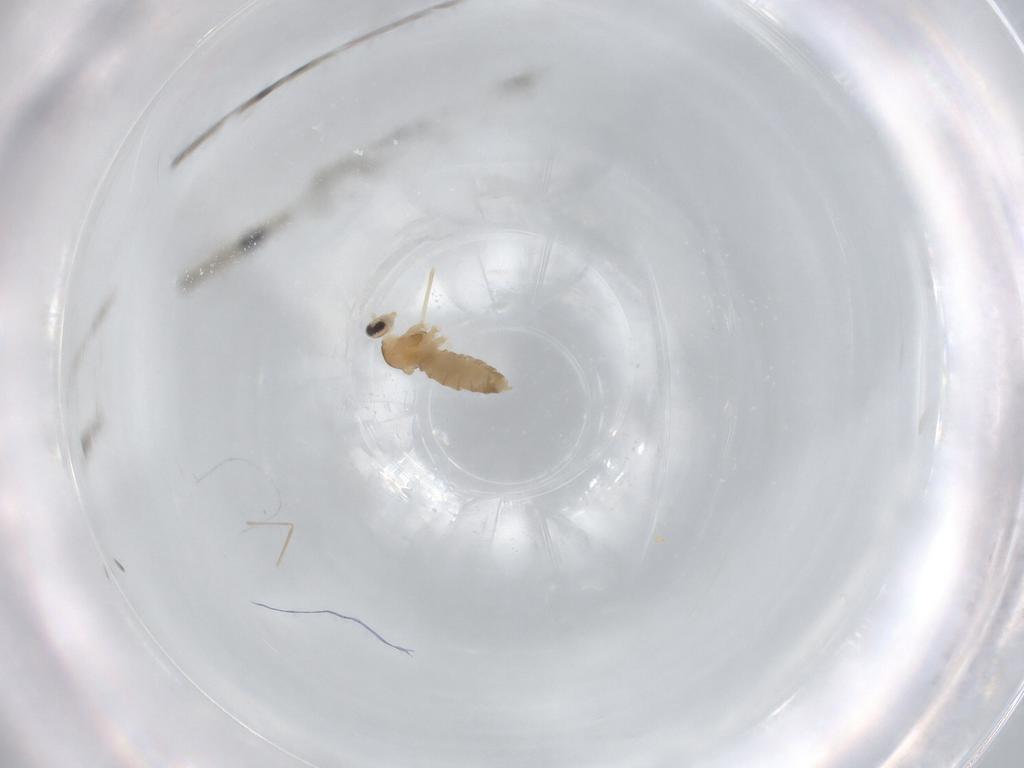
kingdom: Animalia
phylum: Arthropoda
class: Insecta
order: Diptera
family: Cecidomyiidae
